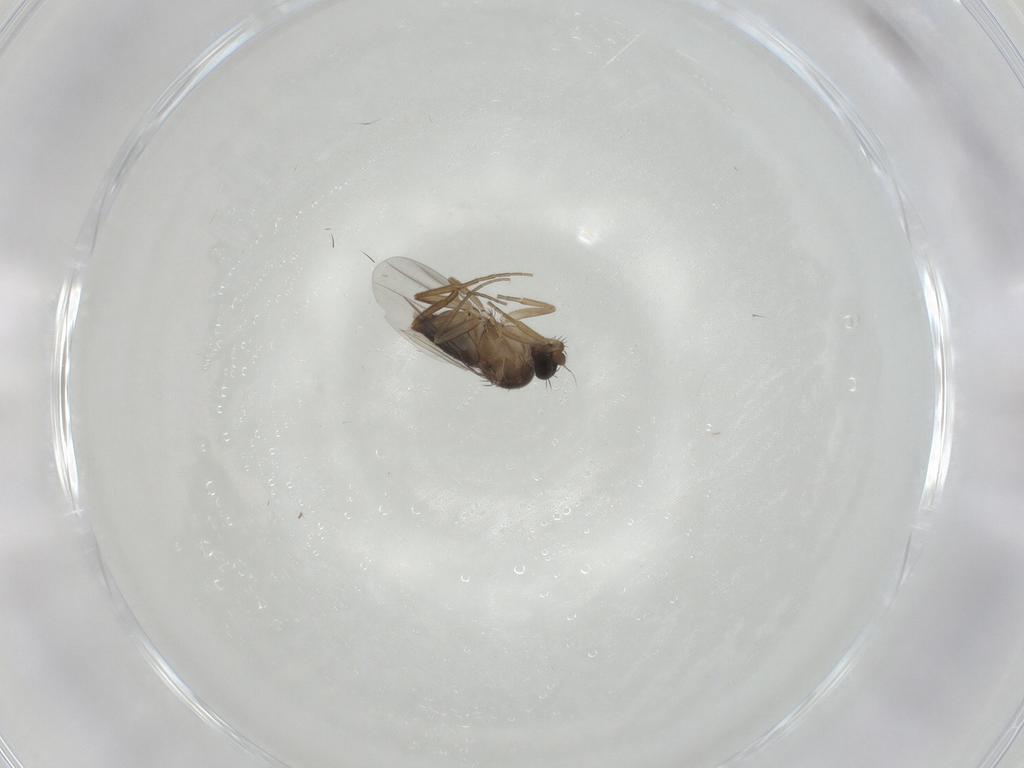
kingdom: Animalia
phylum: Arthropoda
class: Insecta
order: Diptera
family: Phoridae
